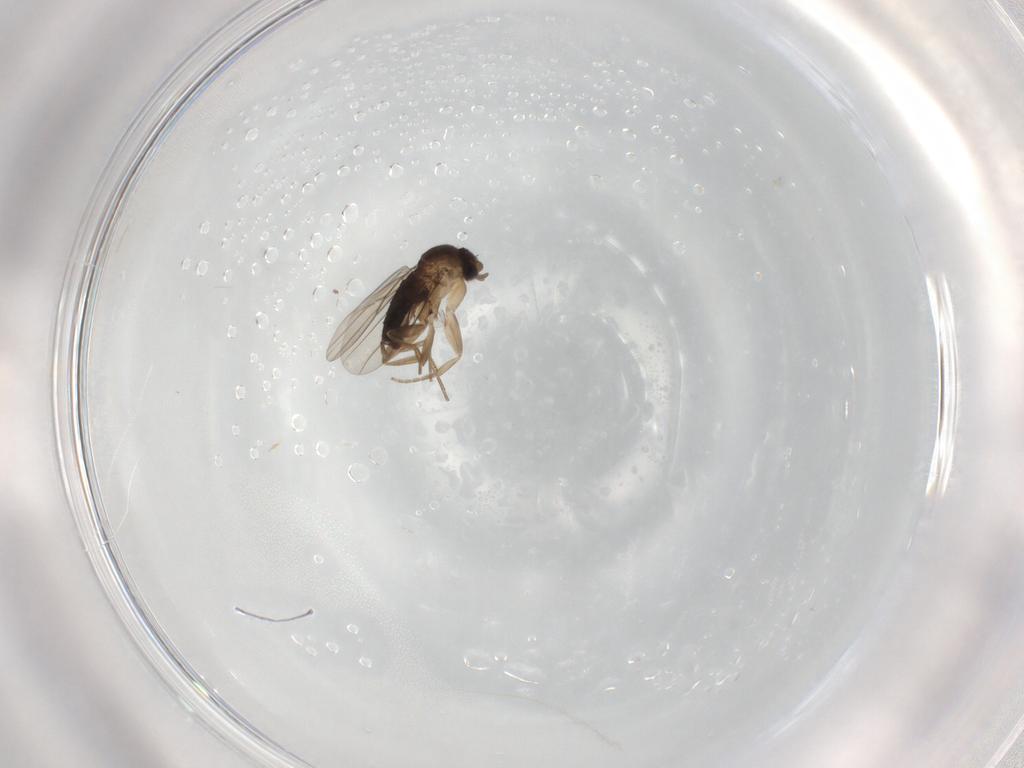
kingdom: Animalia
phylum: Arthropoda
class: Insecta
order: Diptera
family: Phoridae
